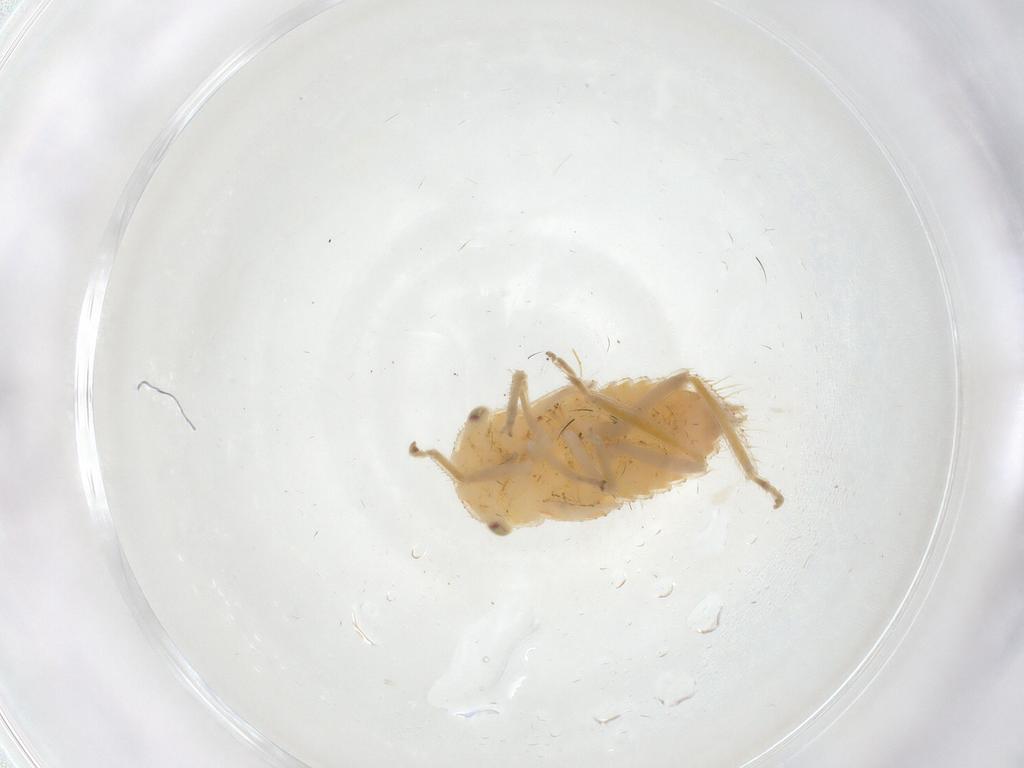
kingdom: Animalia
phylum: Arthropoda
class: Insecta
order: Hemiptera
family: Cicadellidae
